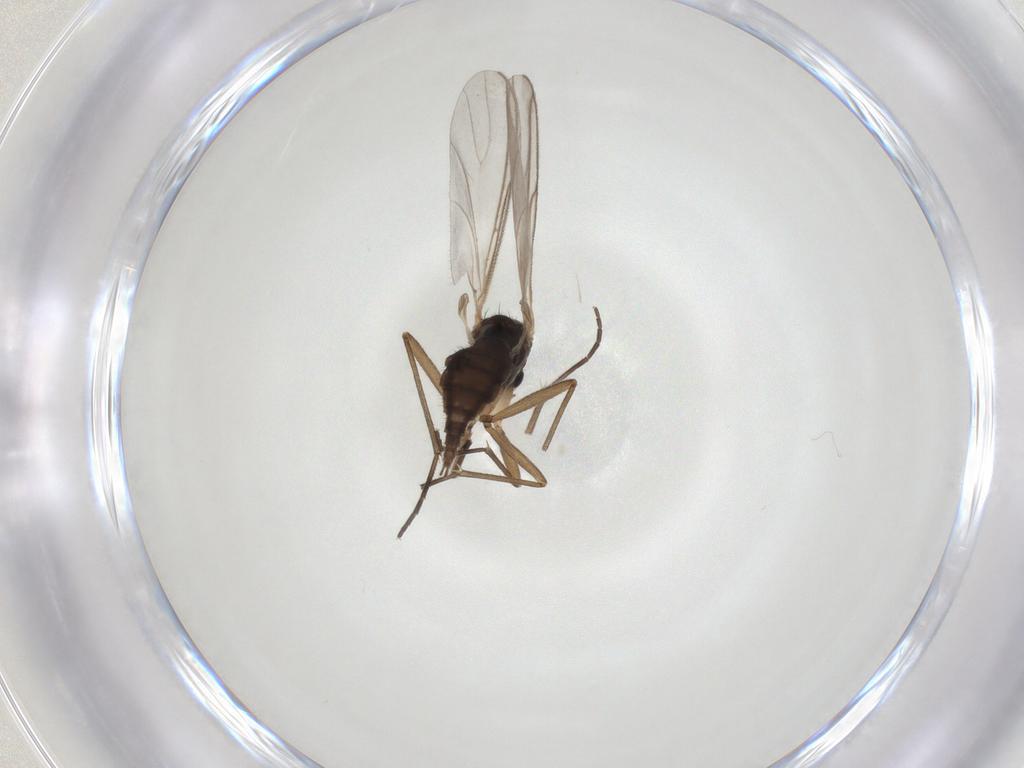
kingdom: Animalia
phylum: Arthropoda
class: Insecta
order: Diptera
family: Sciaridae
